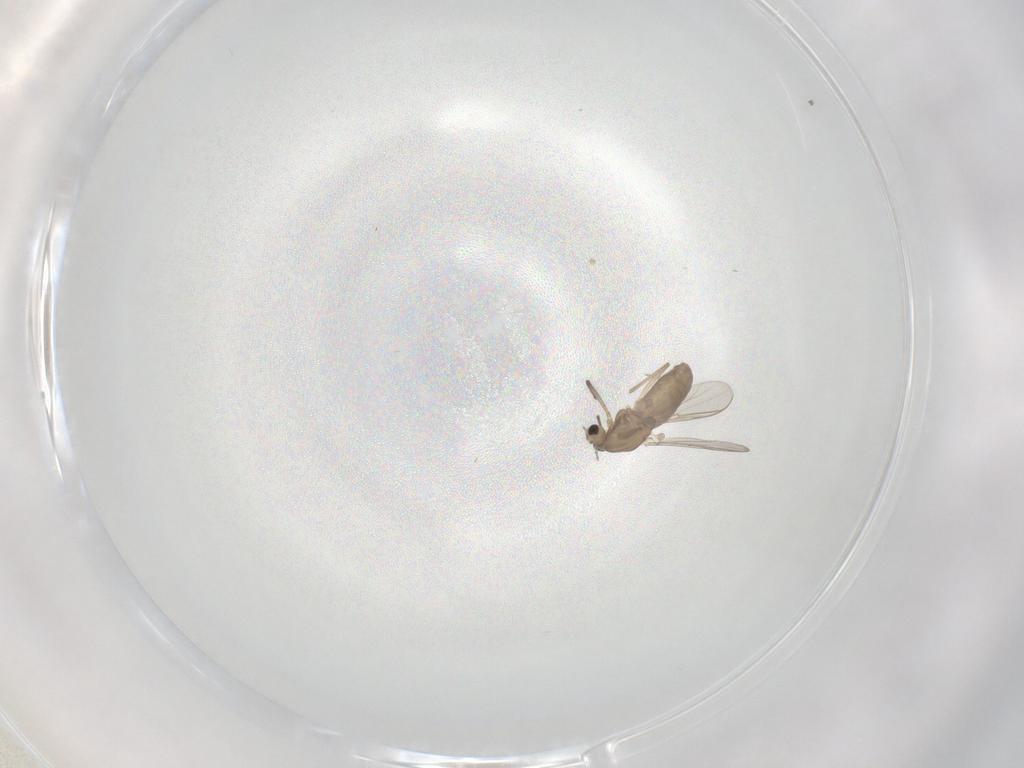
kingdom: Animalia
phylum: Arthropoda
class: Insecta
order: Diptera
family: Chironomidae
